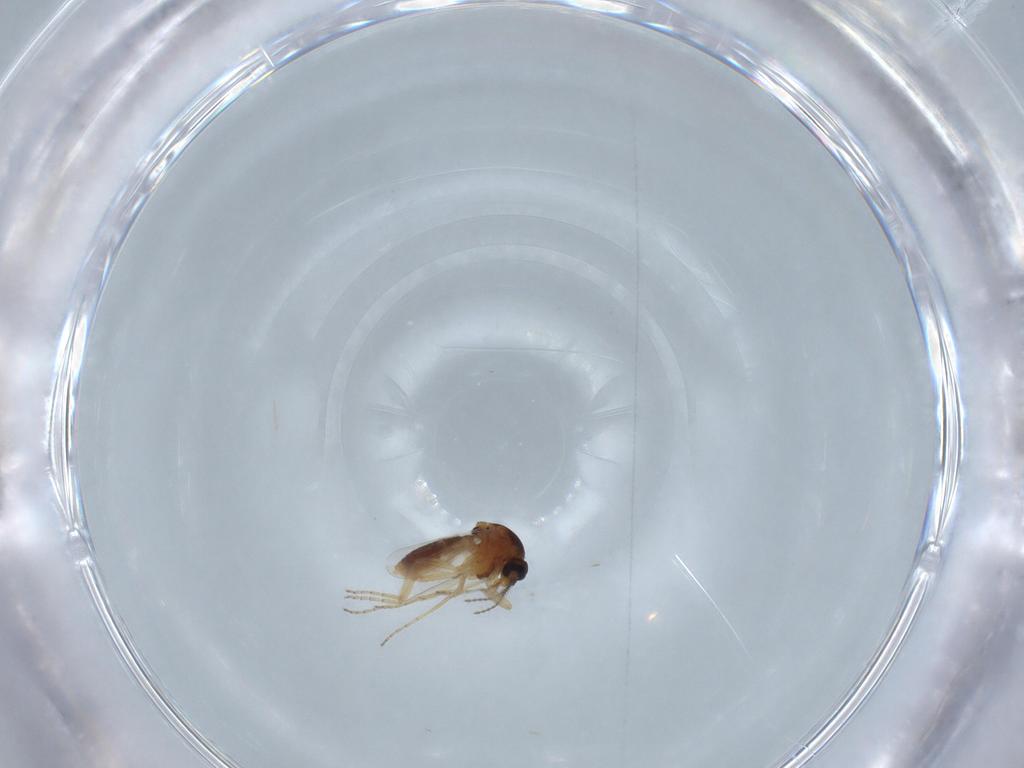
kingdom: Animalia
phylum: Arthropoda
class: Insecta
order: Diptera
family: Ceratopogonidae
